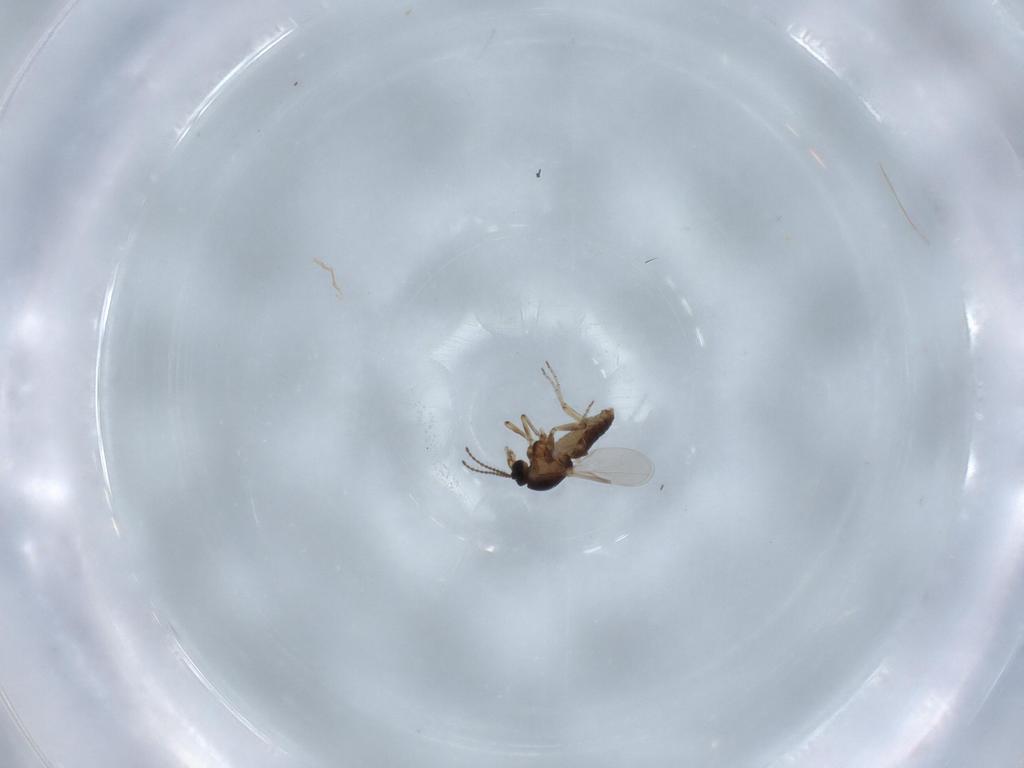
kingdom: Animalia
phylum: Arthropoda
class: Insecta
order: Diptera
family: Ceratopogonidae
